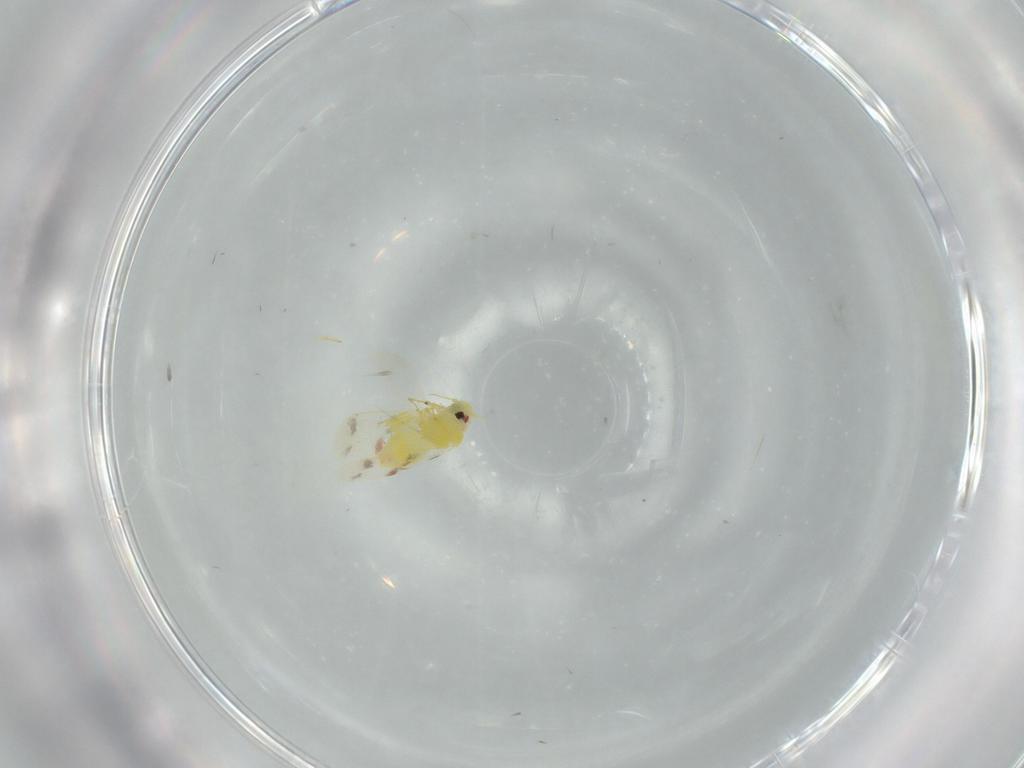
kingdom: Animalia
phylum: Arthropoda
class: Insecta
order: Hemiptera
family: Aleyrodidae
